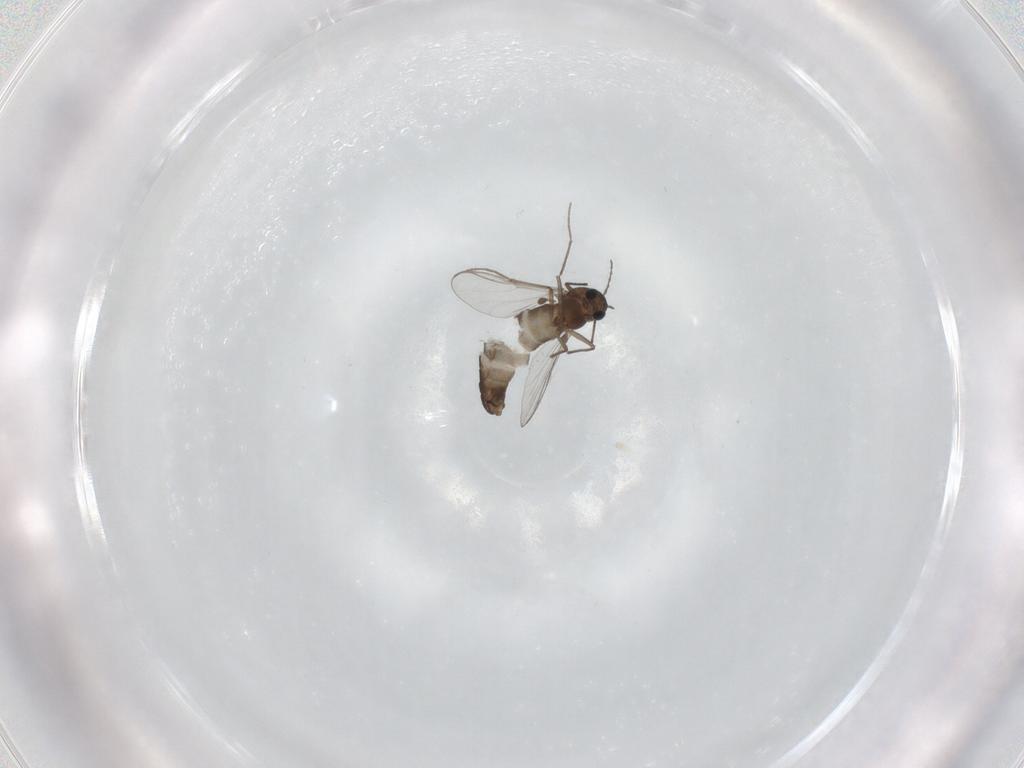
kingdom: Animalia
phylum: Arthropoda
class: Insecta
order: Diptera
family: Chironomidae
